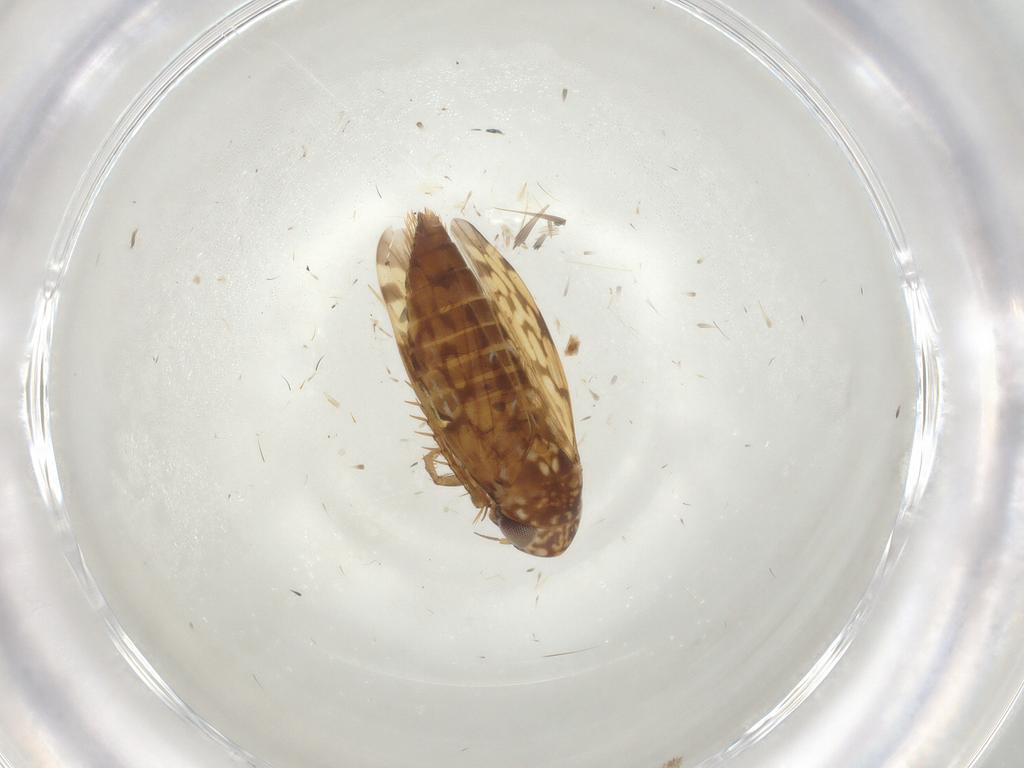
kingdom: Animalia
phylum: Arthropoda
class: Insecta
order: Hemiptera
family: Cicadellidae
